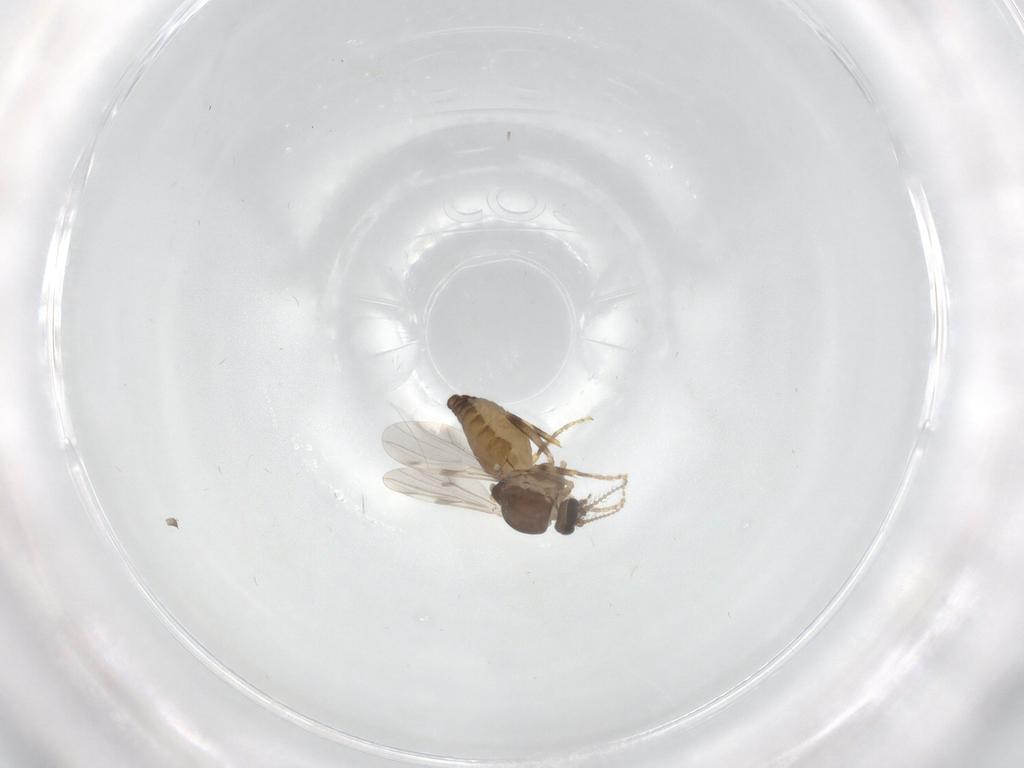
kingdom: Animalia
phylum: Arthropoda
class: Insecta
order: Diptera
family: Ceratopogonidae
